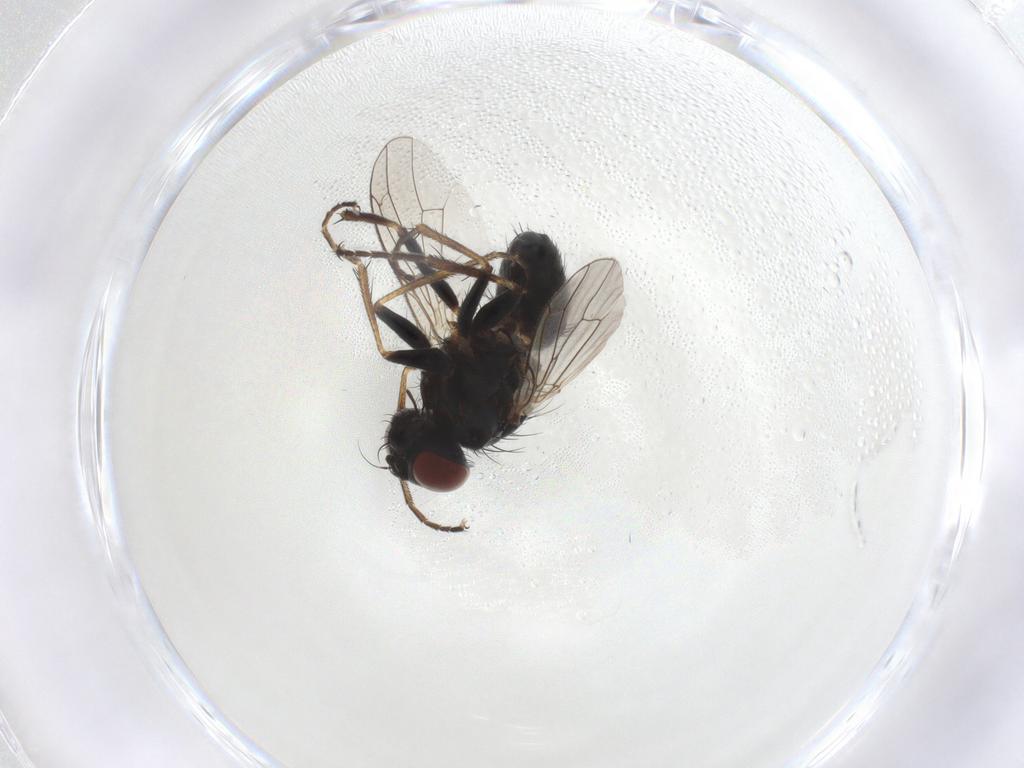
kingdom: Animalia
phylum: Arthropoda
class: Insecta
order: Diptera
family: Muscidae
